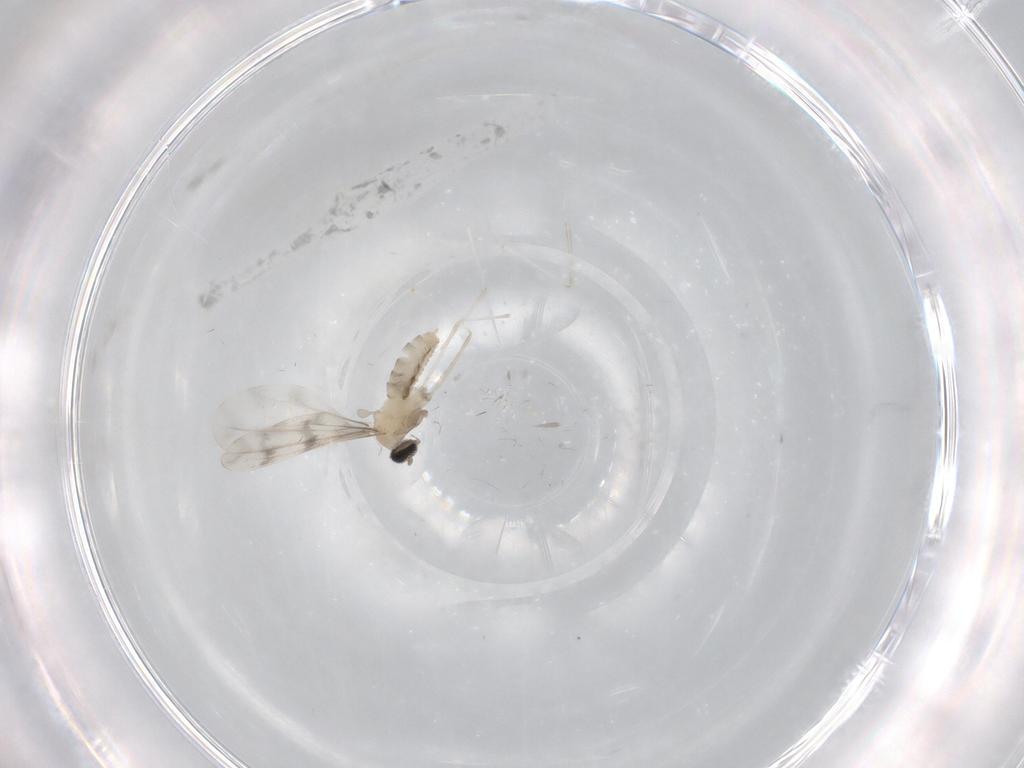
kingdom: Animalia
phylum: Arthropoda
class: Insecta
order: Diptera
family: Cecidomyiidae
